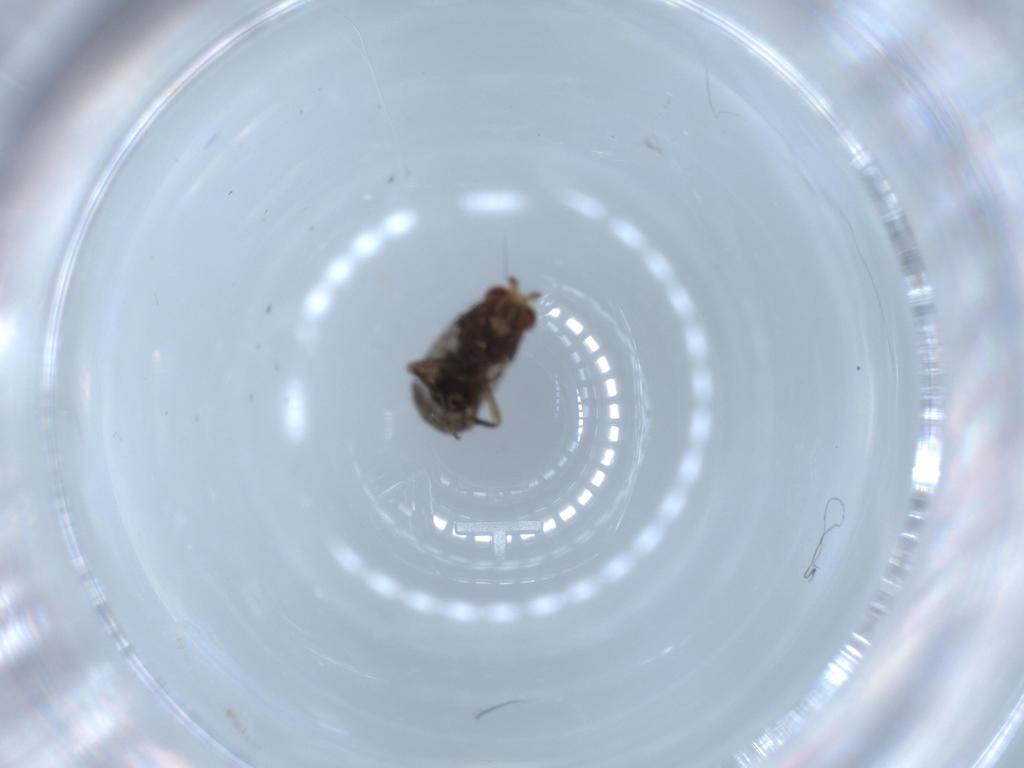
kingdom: Animalia
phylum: Arthropoda
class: Insecta
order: Diptera
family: Sphaeroceridae
